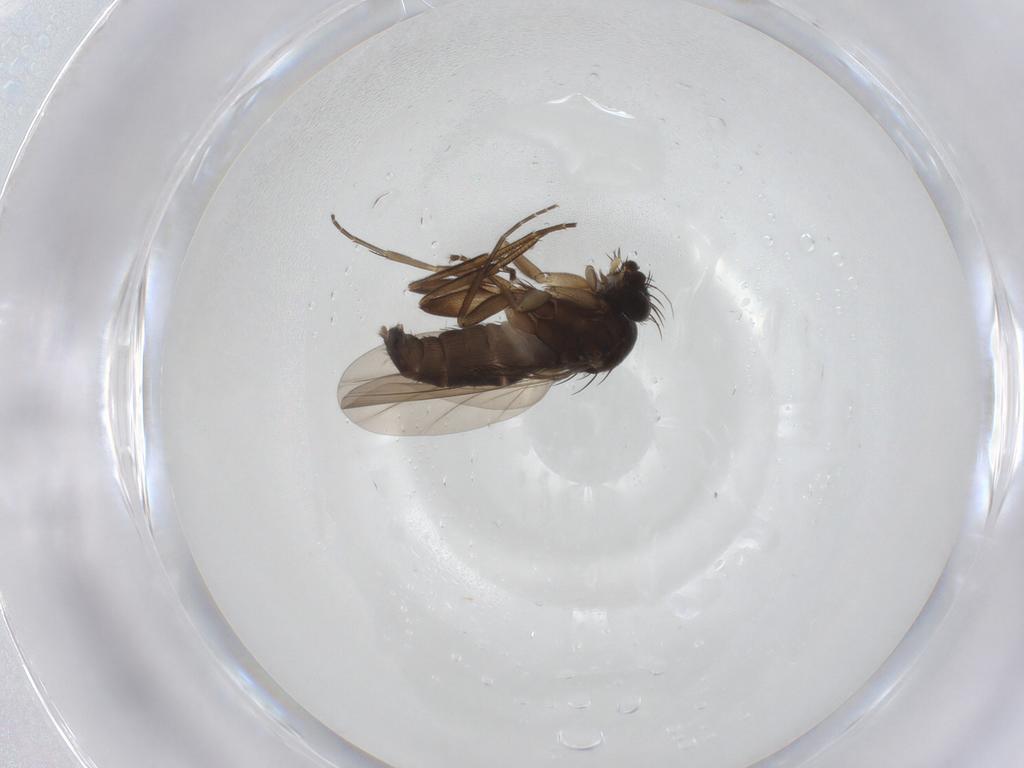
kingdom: Animalia
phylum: Arthropoda
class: Insecta
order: Diptera
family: Phoridae
